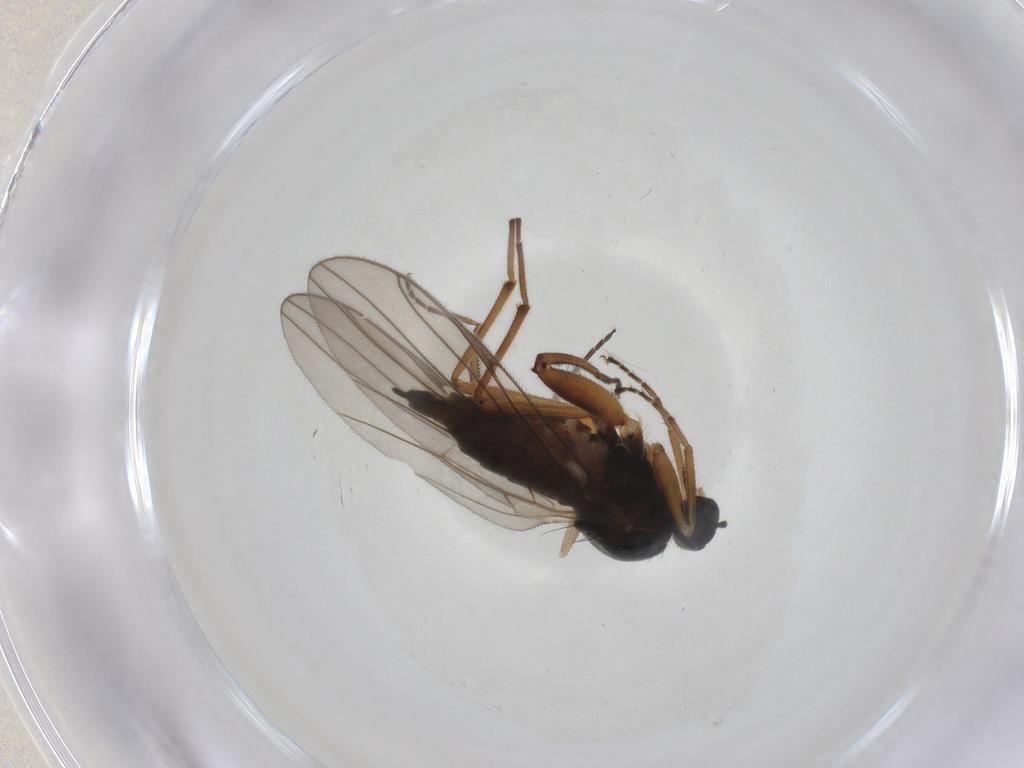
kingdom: Animalia
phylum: Arthropoda
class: Insecta
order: Diptera
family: Hybotidae
